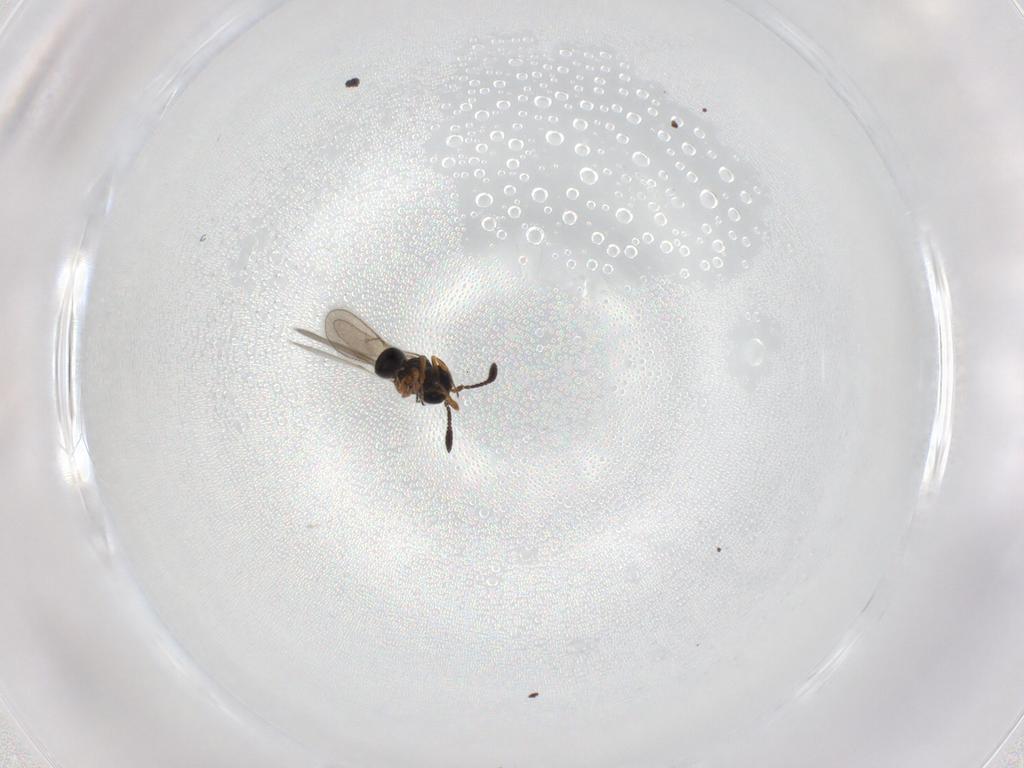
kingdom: Animalia
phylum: Arthropoda
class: Insecta
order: Hymenoptera
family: Scelionidae
